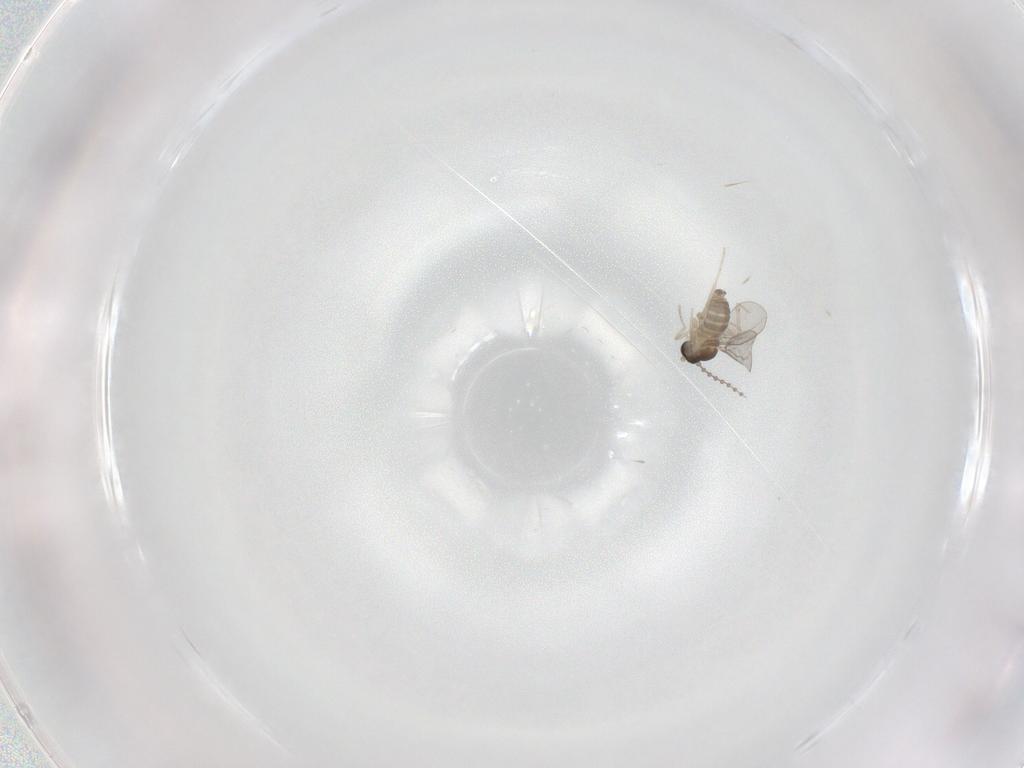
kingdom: Animalia
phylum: Arthropoda
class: Insecta
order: Diptera
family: Cecidomyiidae
